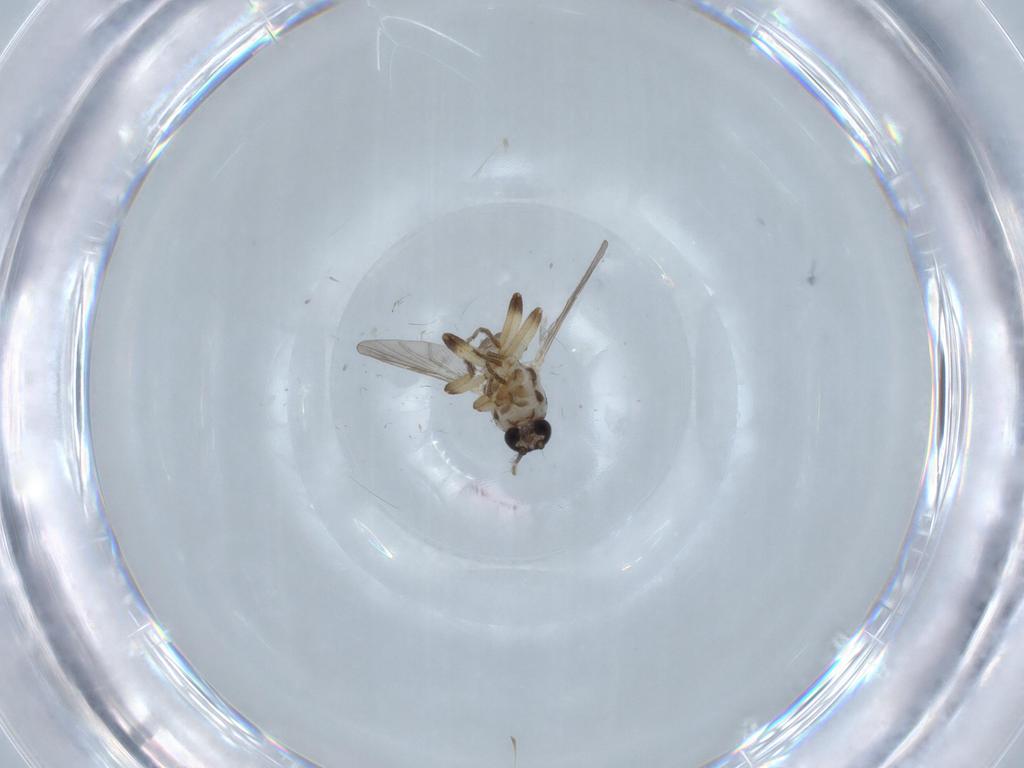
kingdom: Animalia
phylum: Arthropoda
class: Insecta
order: Diptera
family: Ceratopogonidae
